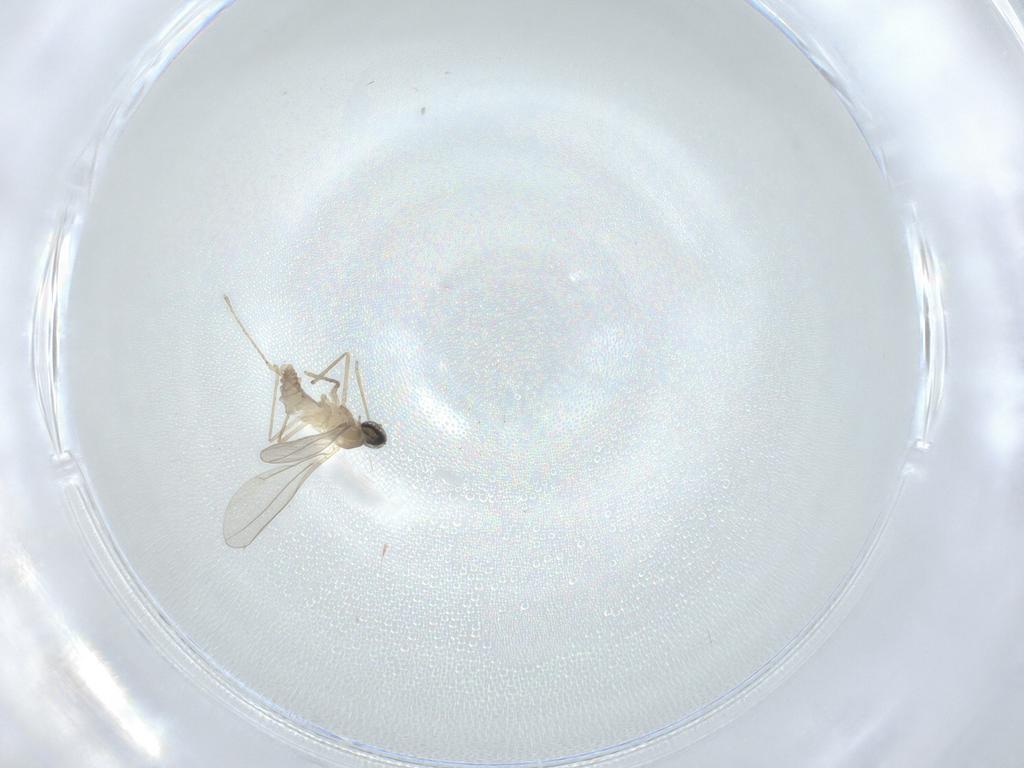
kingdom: Animalia
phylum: Arthropoda
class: Insecta
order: Diptera
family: Cecidomyiidae
